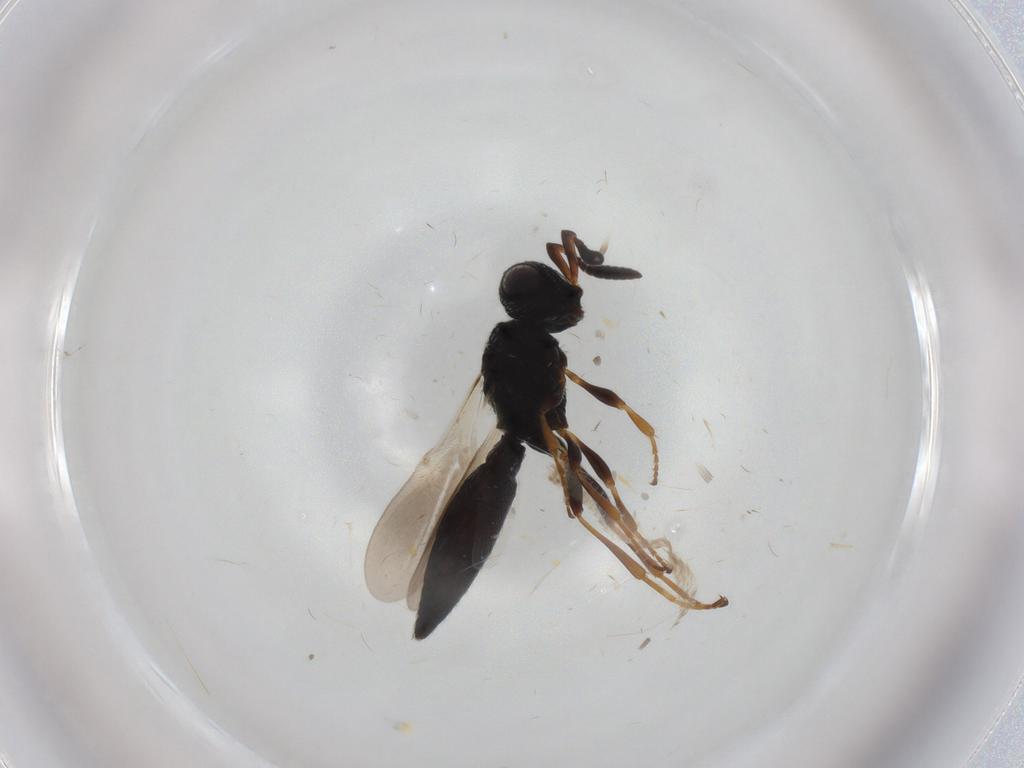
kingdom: Animalia
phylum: Arthropoda
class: Insecta
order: Hymenoptera
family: Scelionidae
